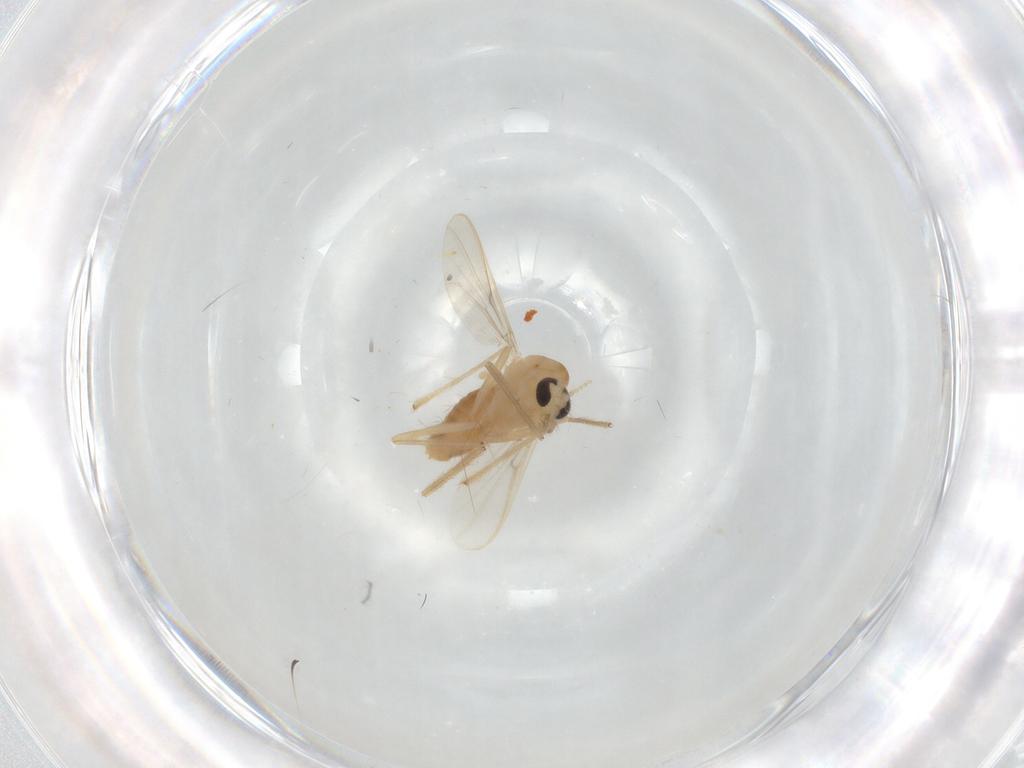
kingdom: Animalia
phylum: Arthropoda
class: Insecta
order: Diptera
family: Chironomidae
